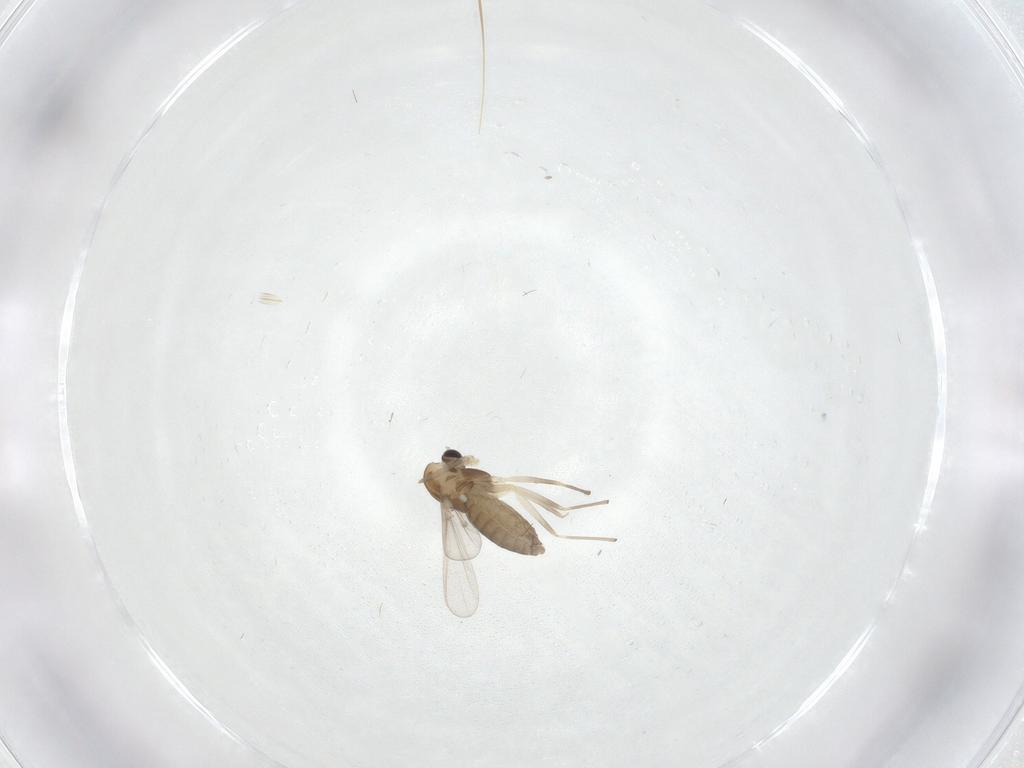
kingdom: Animalia
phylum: Arthropoda
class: Insecta
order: Diptera
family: Chironomidae
